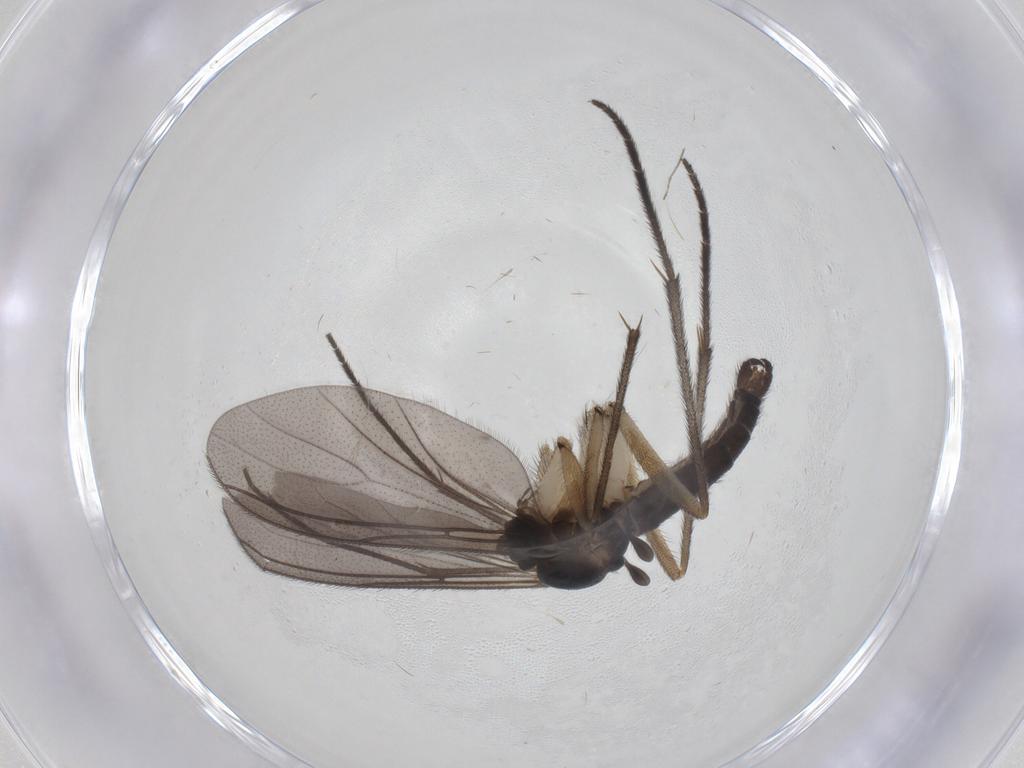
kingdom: Animalia
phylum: Arthropoda
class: Insecta
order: Diptera
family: Sciaridae
